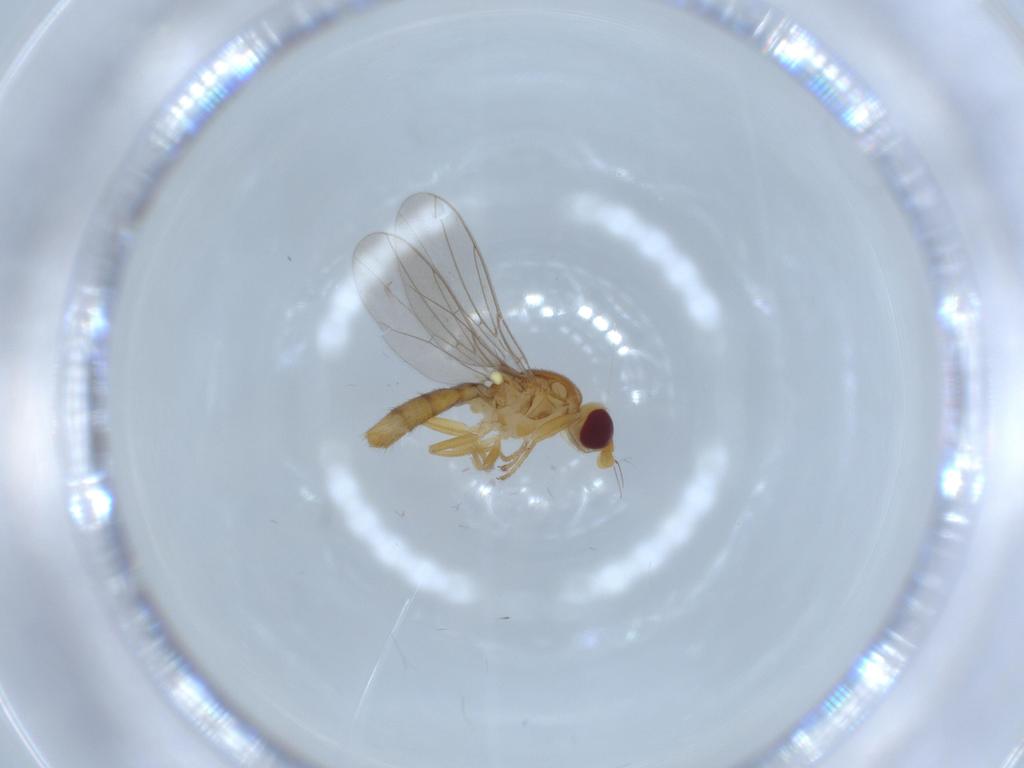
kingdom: Animalia
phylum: Arthropoda
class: Insecta
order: Diptera
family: Chloropidae
